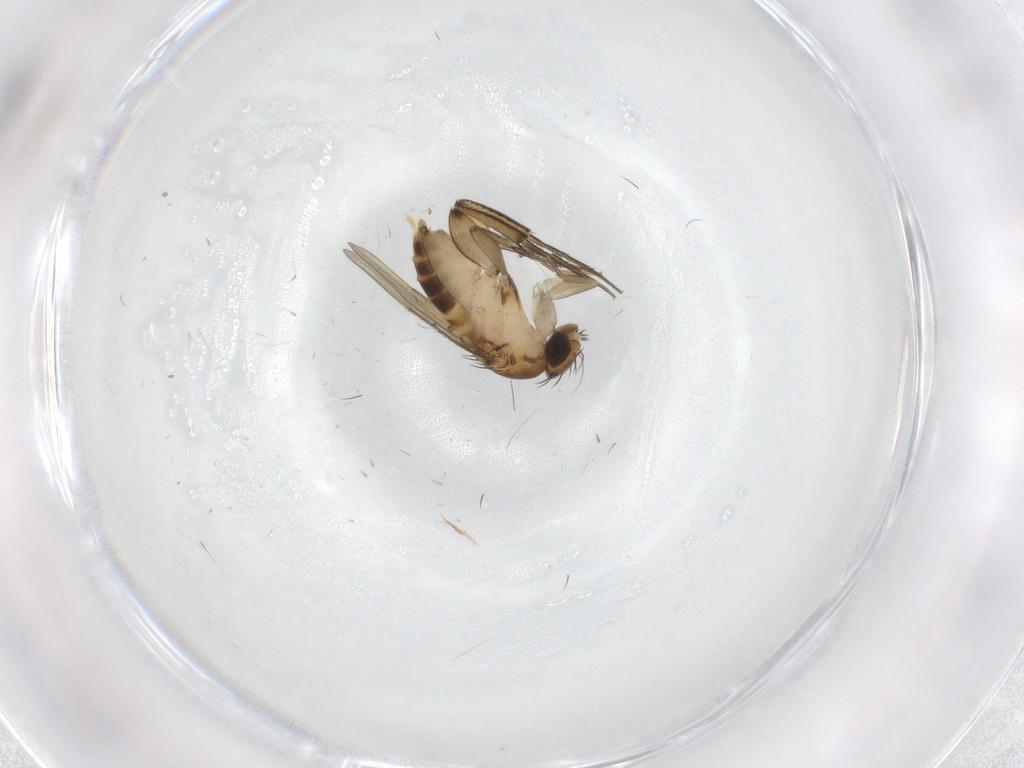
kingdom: Animalia
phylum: Arthropoda
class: Insecta
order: Diptera
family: Phoridae
